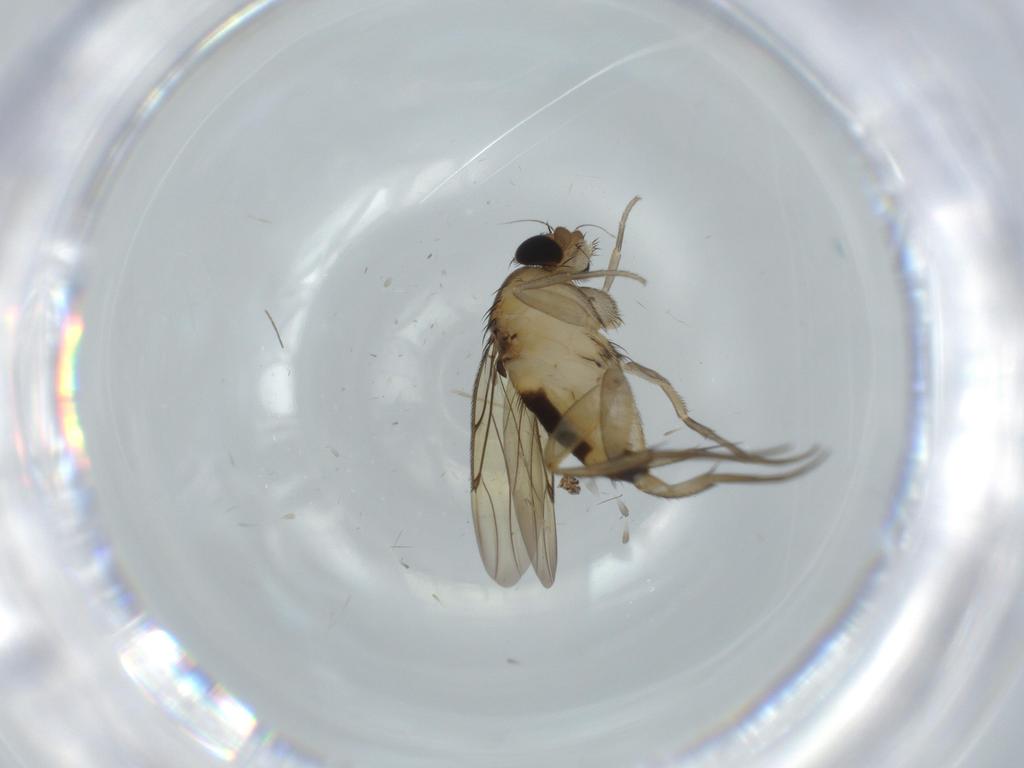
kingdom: Animalia
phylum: Arthropoda
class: Insecta
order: Diptera
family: Chironomidae
